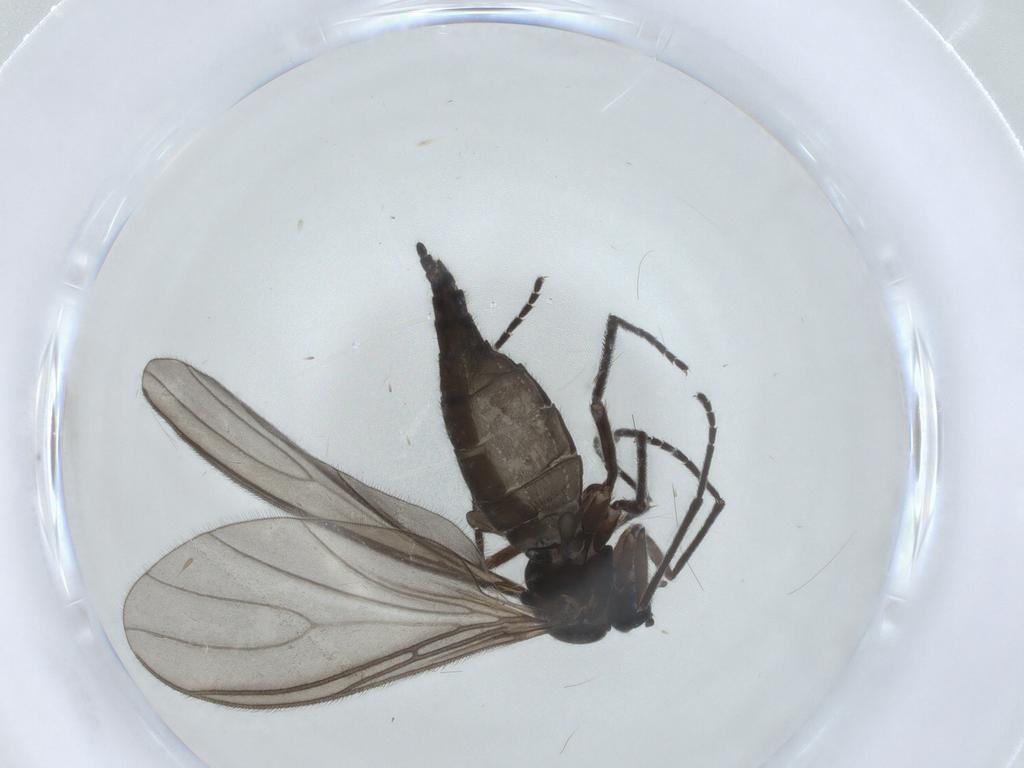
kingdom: Animalia
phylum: Arthropoda
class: Insecta
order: Diptera
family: Sciaridae
